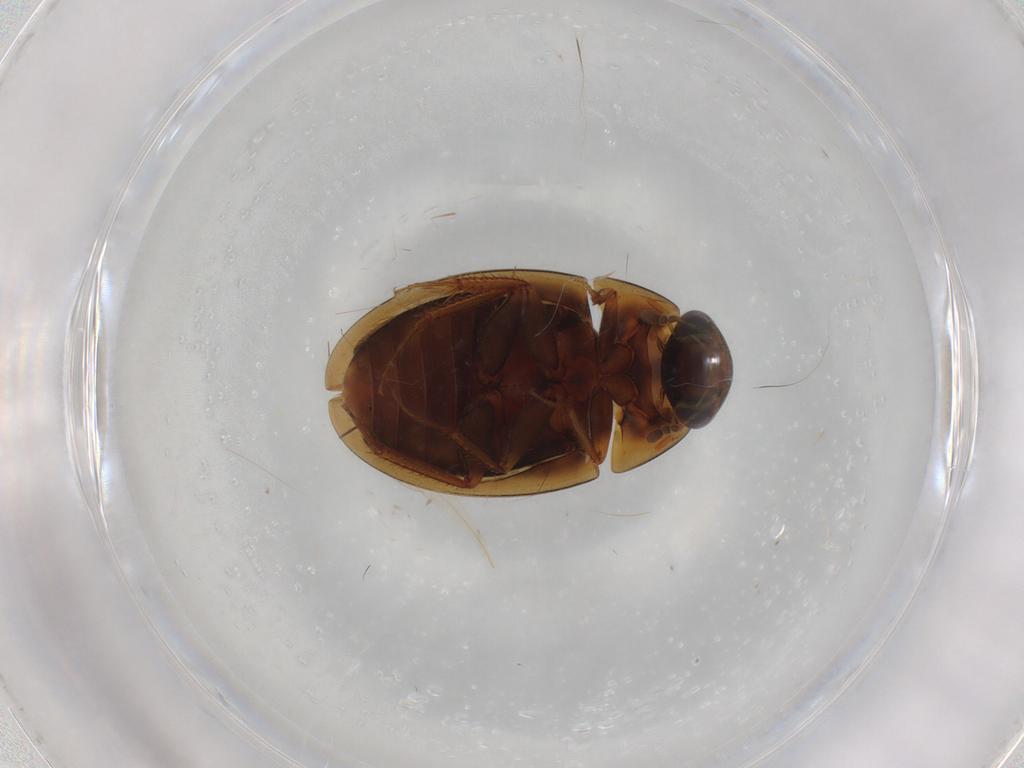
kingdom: Animalia
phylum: Arthropoda
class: Insecta
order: Coleoptera
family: Hydrophilidae
